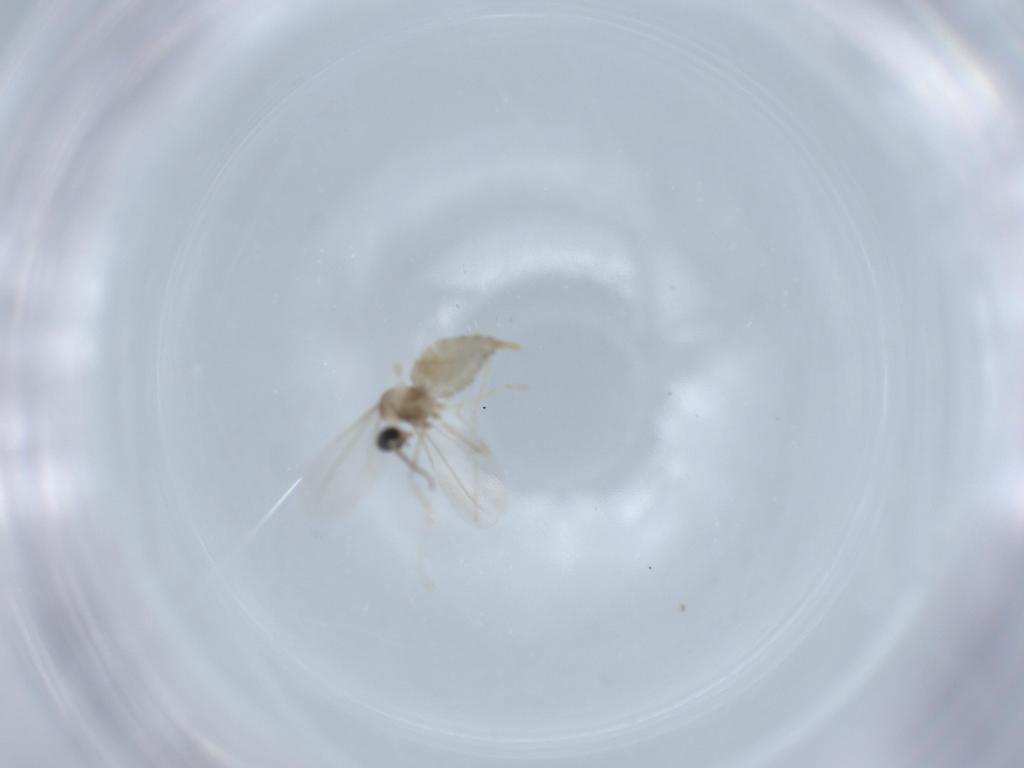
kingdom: Animalia
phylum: Arthropoda
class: Insecta
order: Diptera
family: Cecidomyiidae
